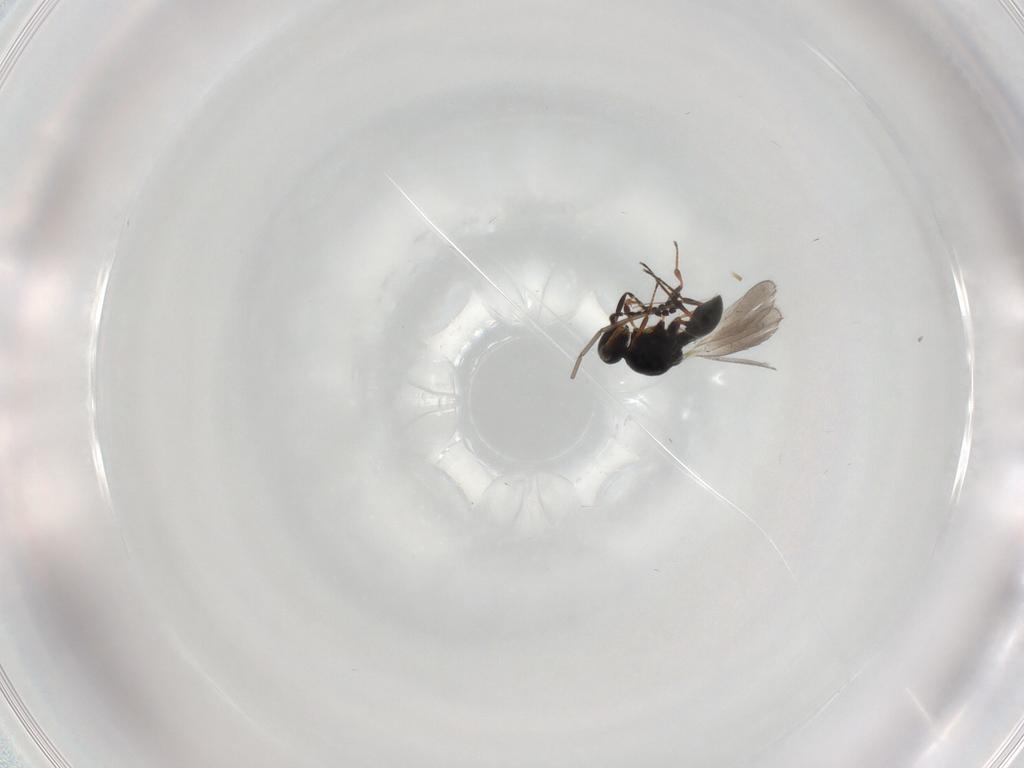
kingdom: Animalia
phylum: Arthropoda
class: Insecta
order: Hymenoptera
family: Platygastridae
